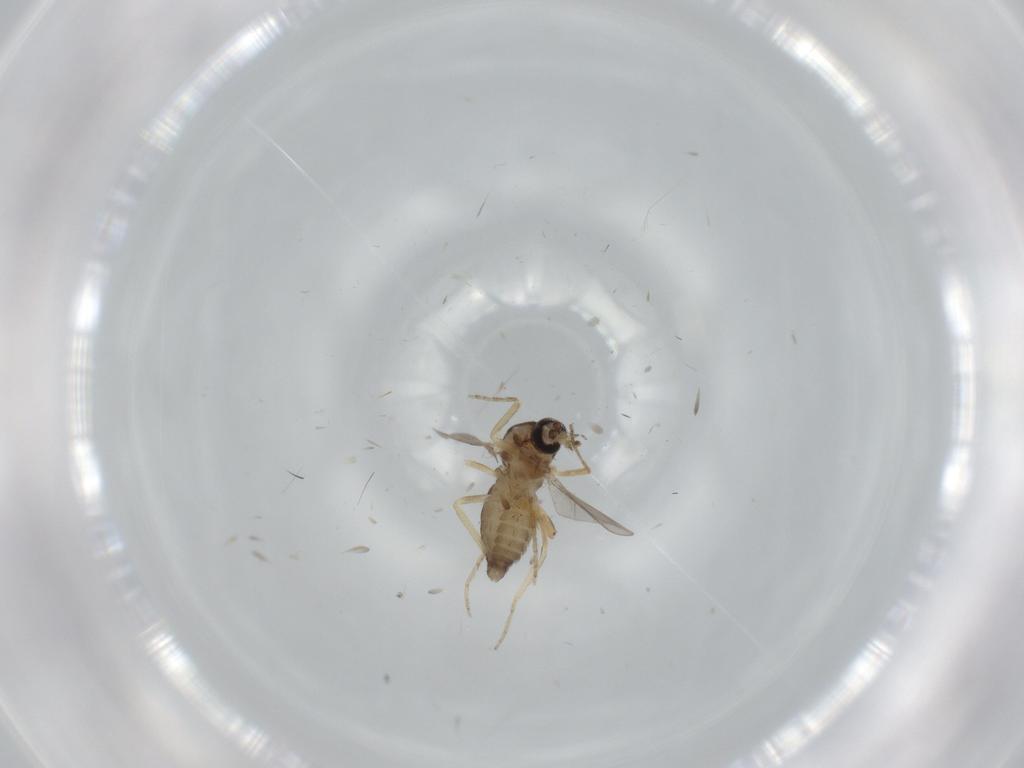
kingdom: Animalia
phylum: Arthropoda
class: Insecta
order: Diptera
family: Ceratopogonidae
